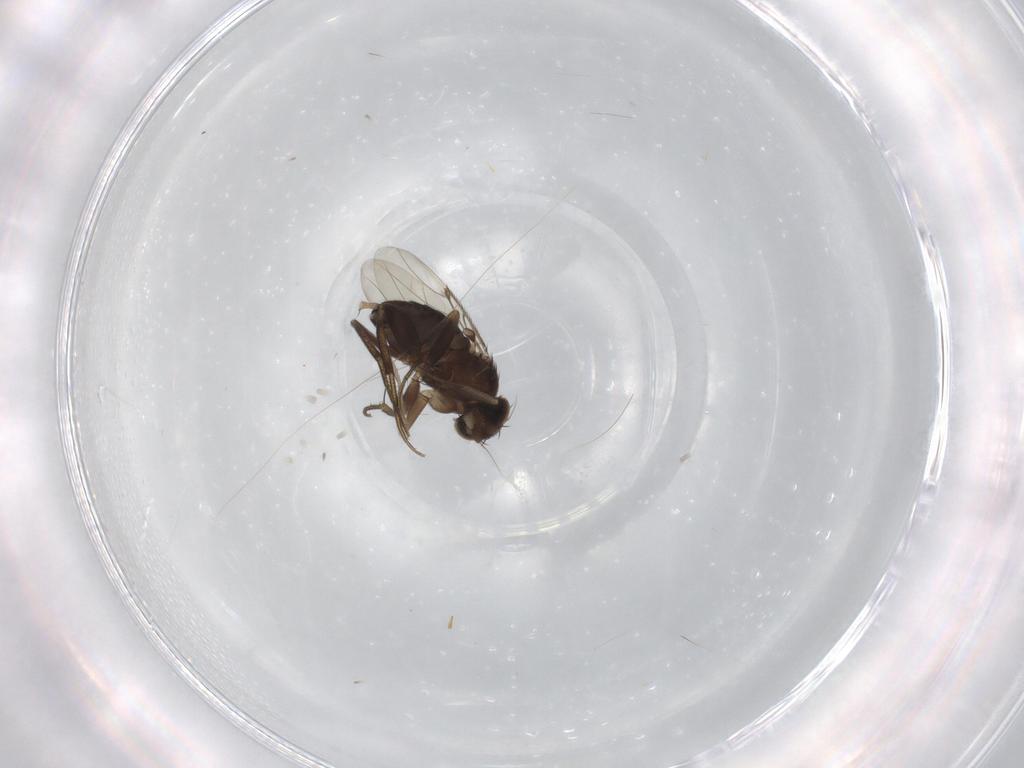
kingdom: Animalia
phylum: Arthropoda
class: Insecta
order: Diptera
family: Phoridae
